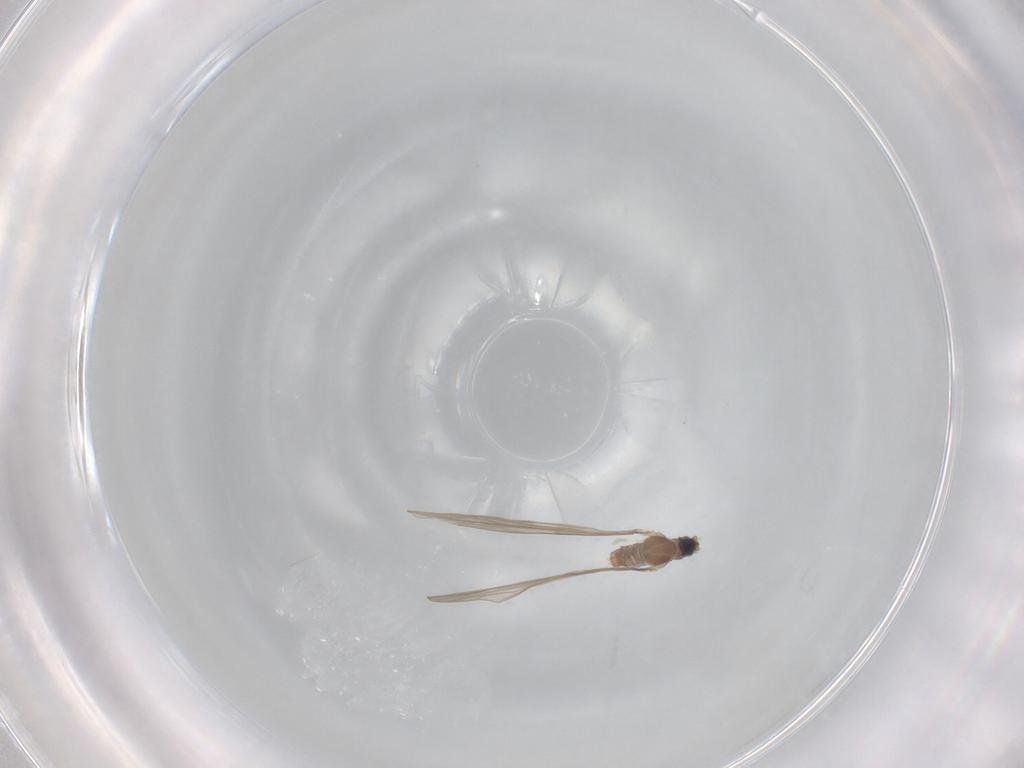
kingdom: Animalia
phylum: Arthropoda
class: Insecta
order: Diptera
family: Cecidomyiidae
